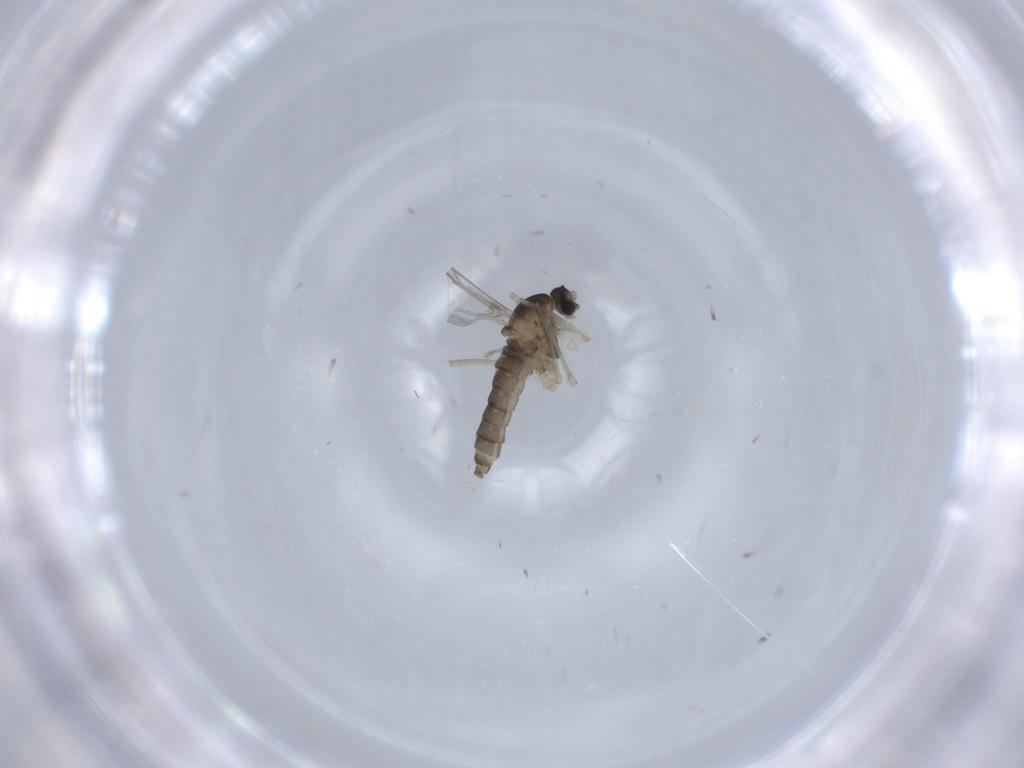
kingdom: Animalia
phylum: Arthropoda
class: Insecta
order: Diptera
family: Cecidomyiidae
